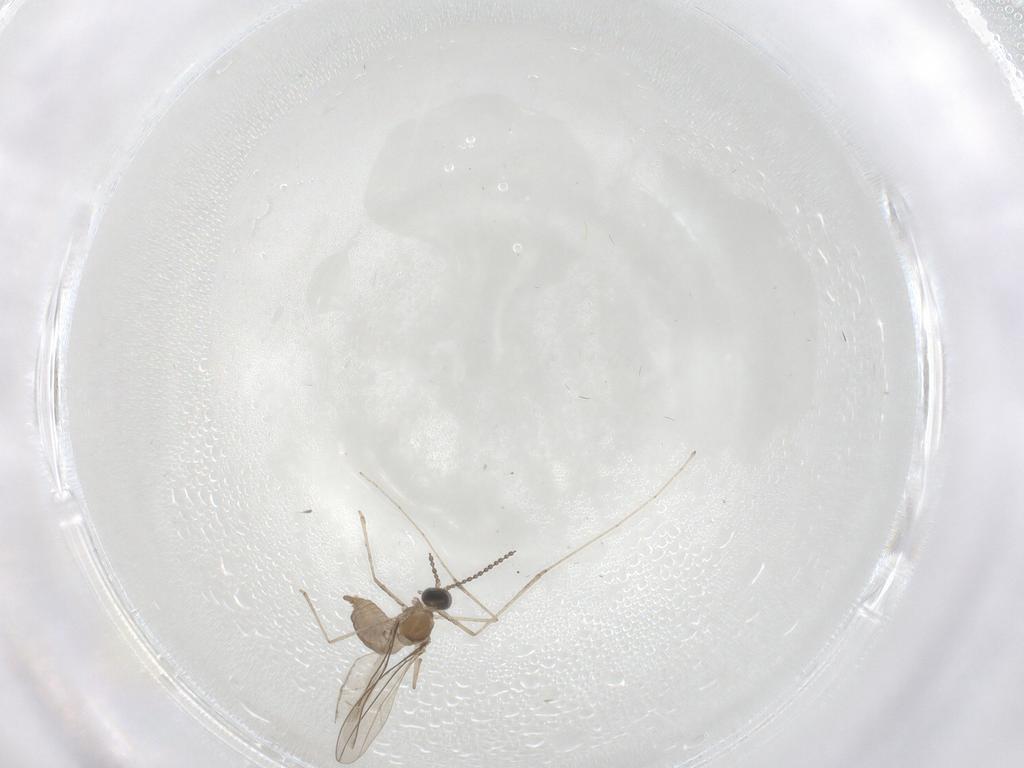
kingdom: Animalia
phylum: Arthropoda
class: Insecta
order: Diptera
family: Cecidomyiidae
